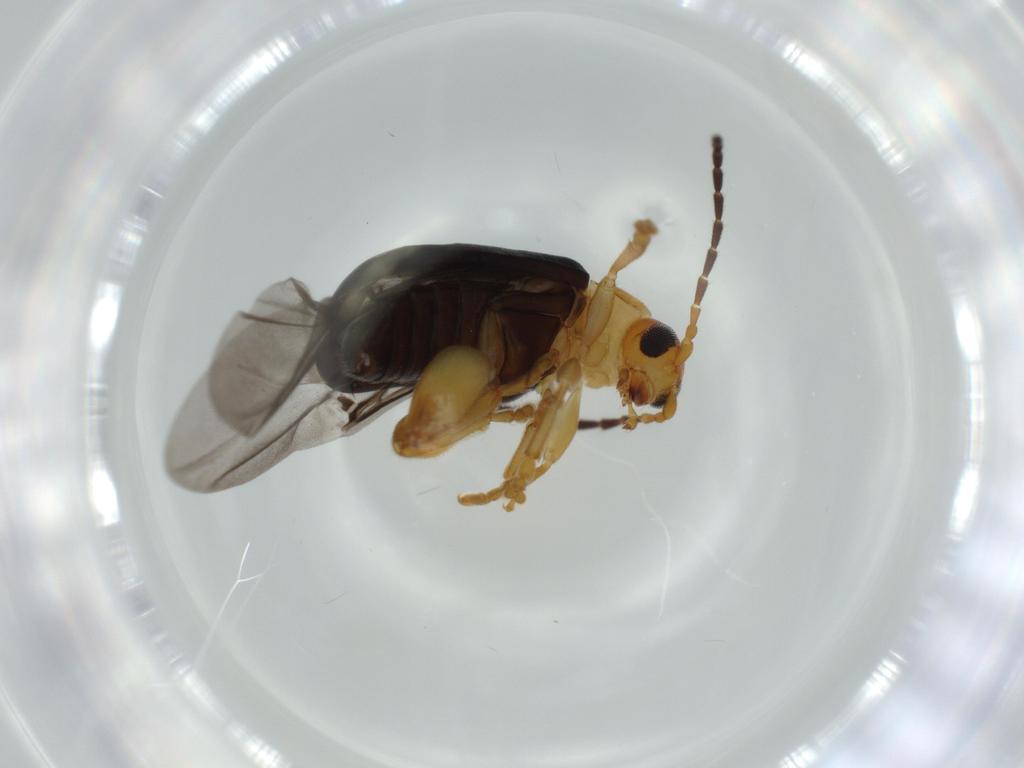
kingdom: Animalia
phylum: Arthropoda
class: Insecta
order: Coleoptera
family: Chrysomelidae
